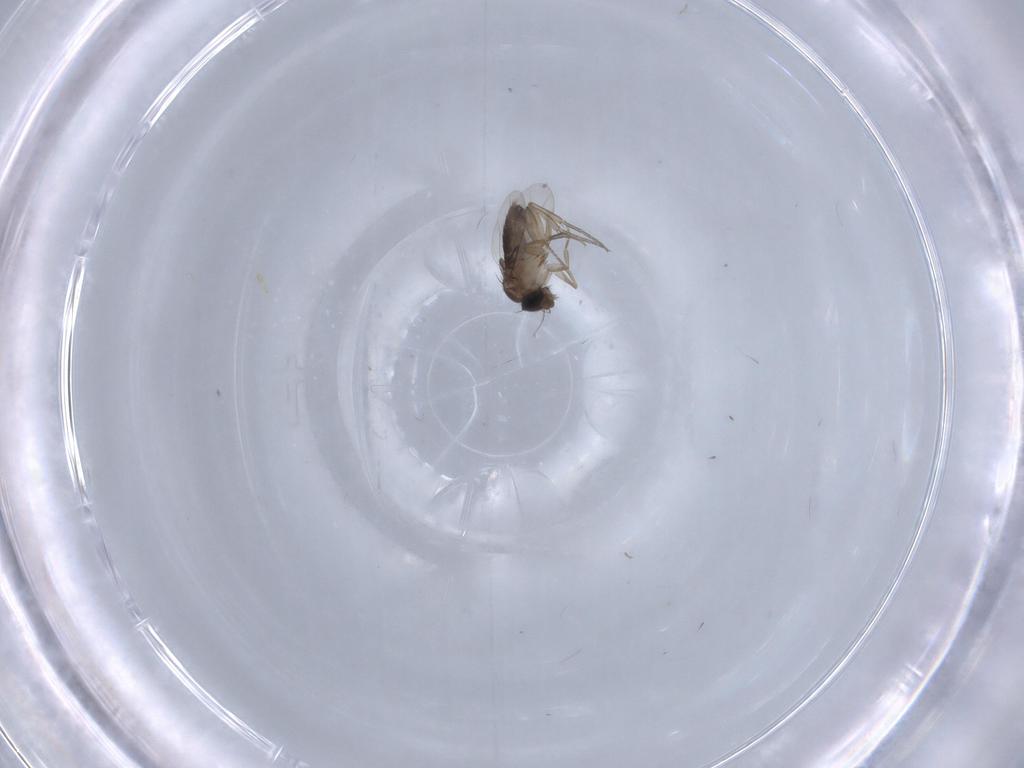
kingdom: Animalia
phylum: Arthropoda
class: Insecta
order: Diptera
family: Phoridae
